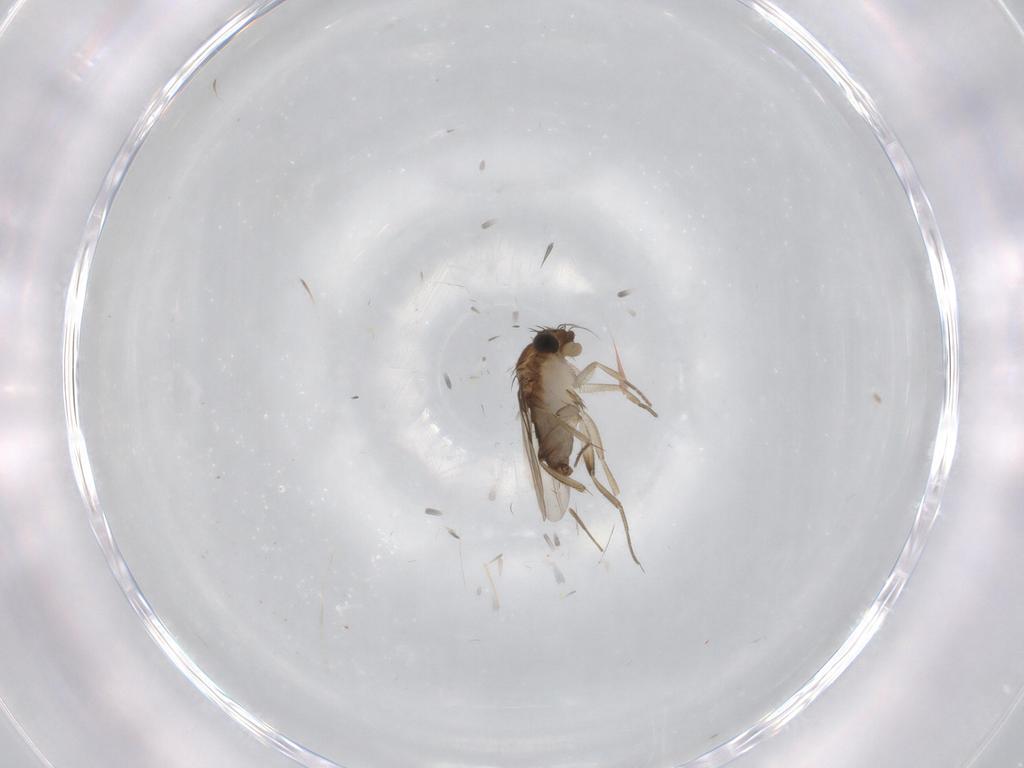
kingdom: Animalia
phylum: Arthropoda
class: Insecta
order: Diptera
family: Phoridae
